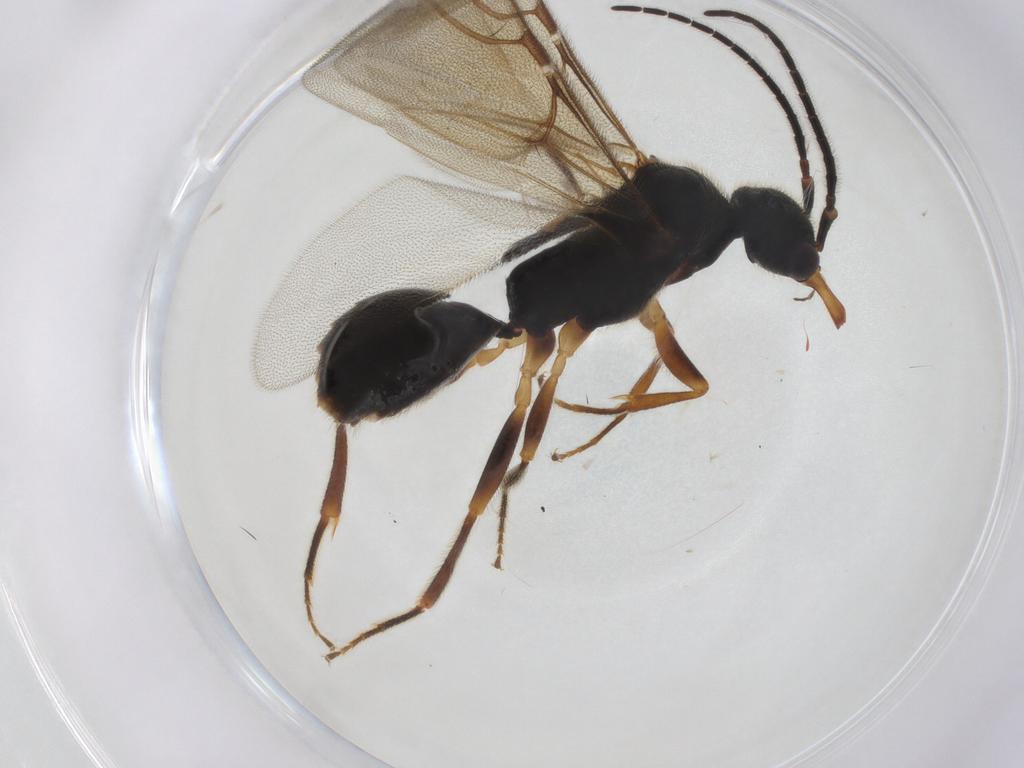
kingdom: Animalia
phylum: Arthropoda
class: Insecta
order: Hymenoptera
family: Bethylidae
